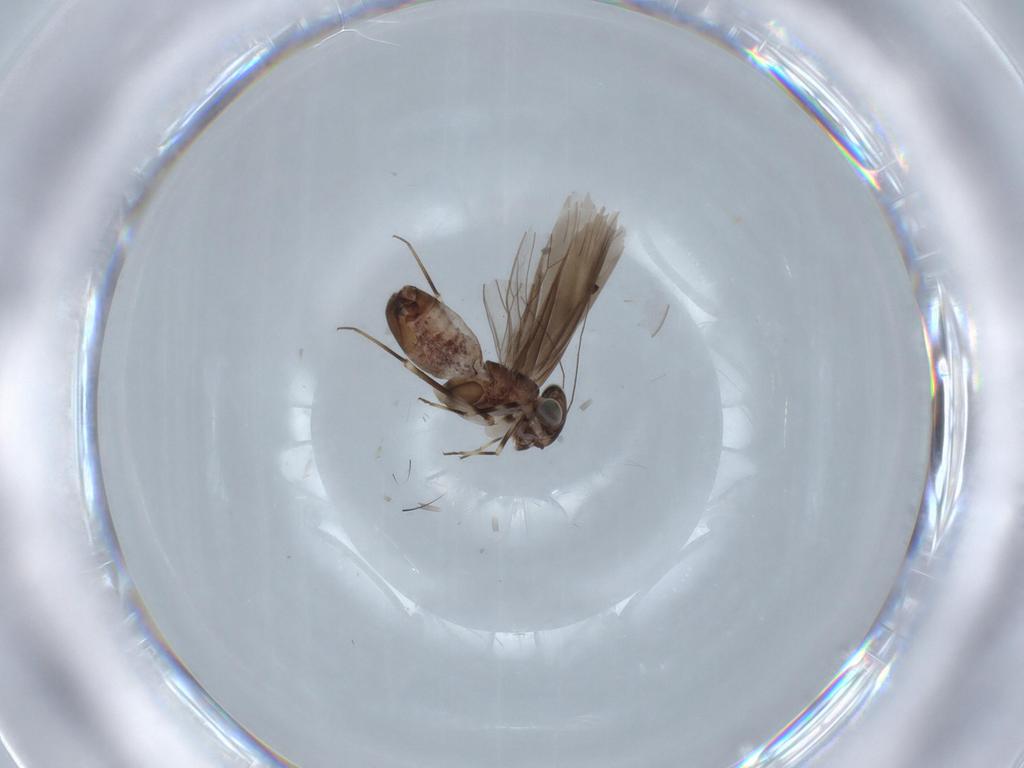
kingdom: Animalia
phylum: Arthropoda
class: Insecta
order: Psocodea
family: Amphientomidae
